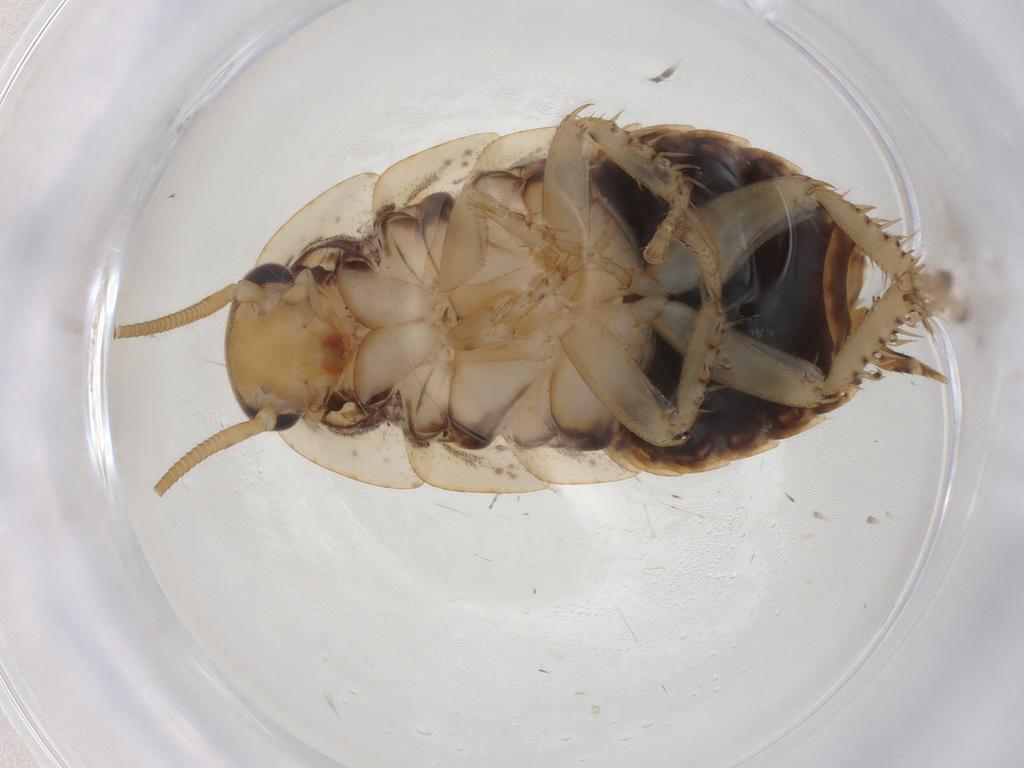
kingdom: Animalia
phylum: Arthropoda
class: Insecta
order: Blattodea
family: Blaberidae
